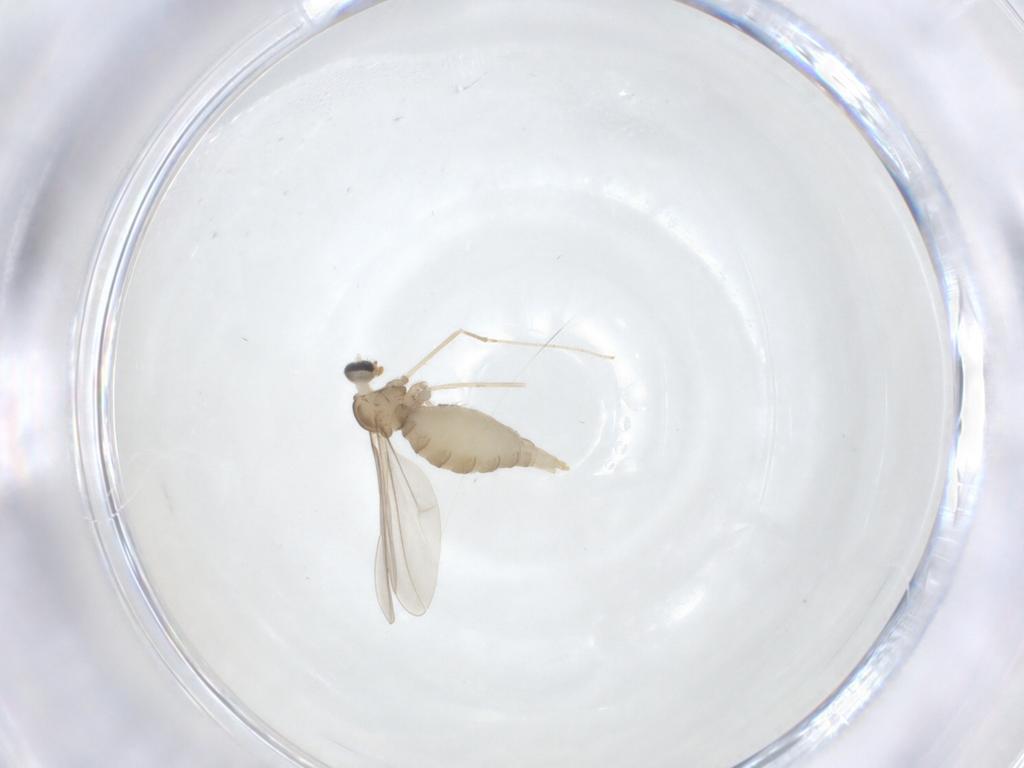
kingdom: Animalia
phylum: Arthropoda
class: Insecta
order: Diptera
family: Cecidomyiidae
